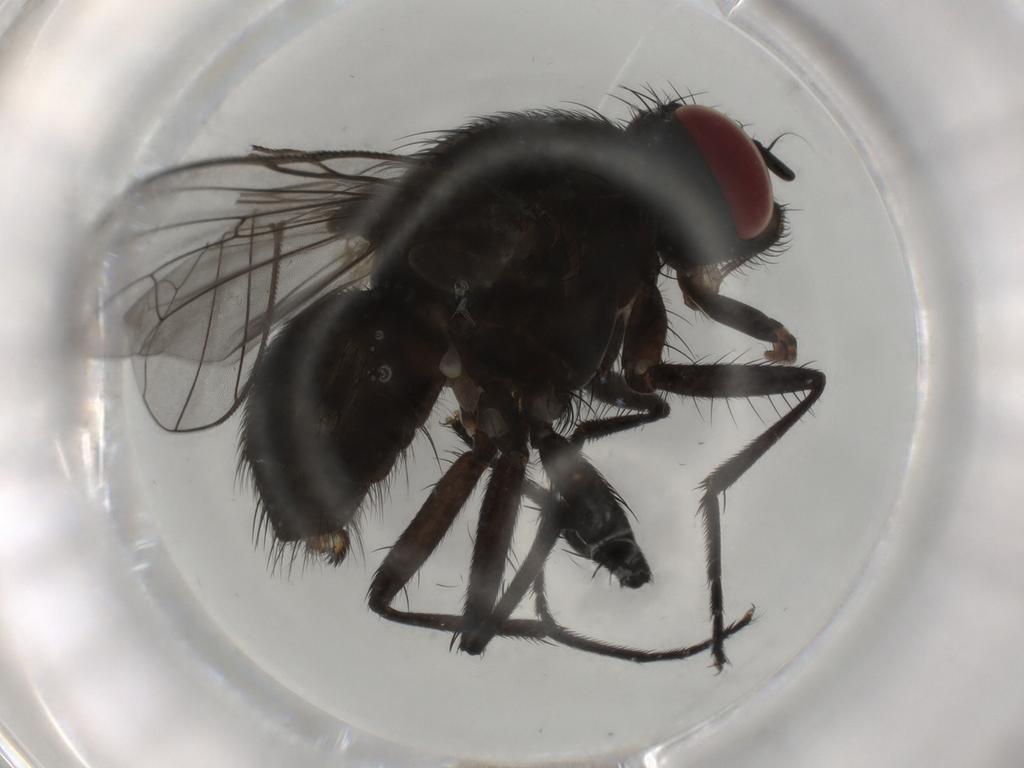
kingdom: Animalia
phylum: Arthropoda
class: Insecta
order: Diptera
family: Muscidae
